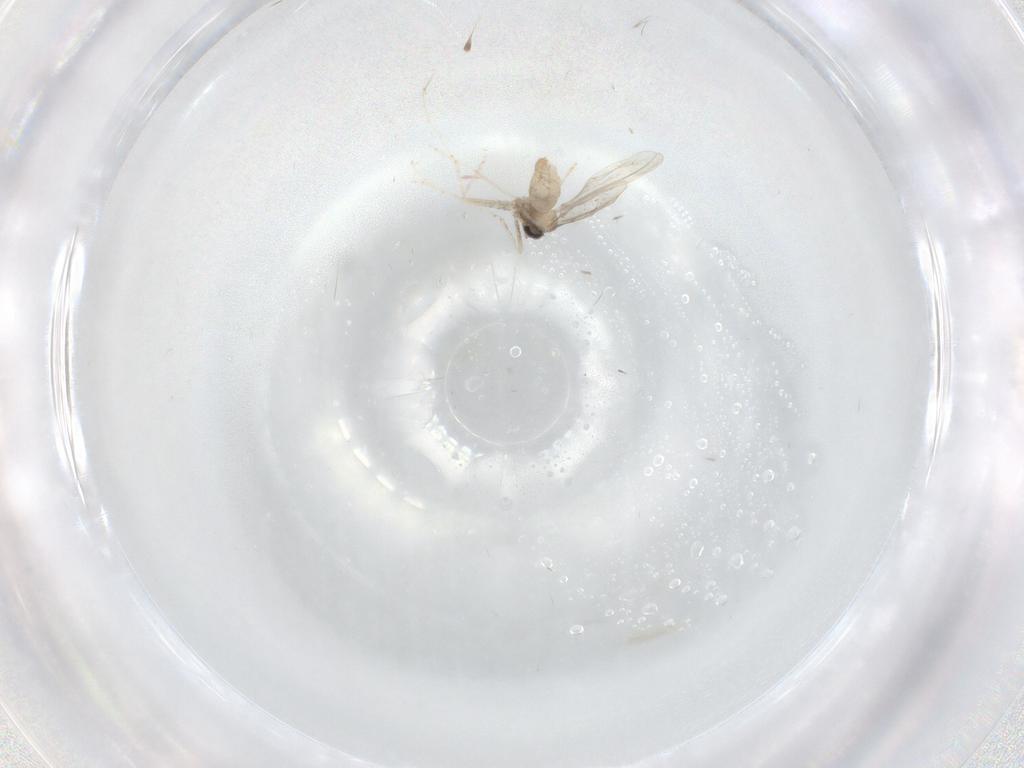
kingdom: Animalia
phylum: Arthropoda
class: Insecta
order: Diptera
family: Cecidomyiidae
